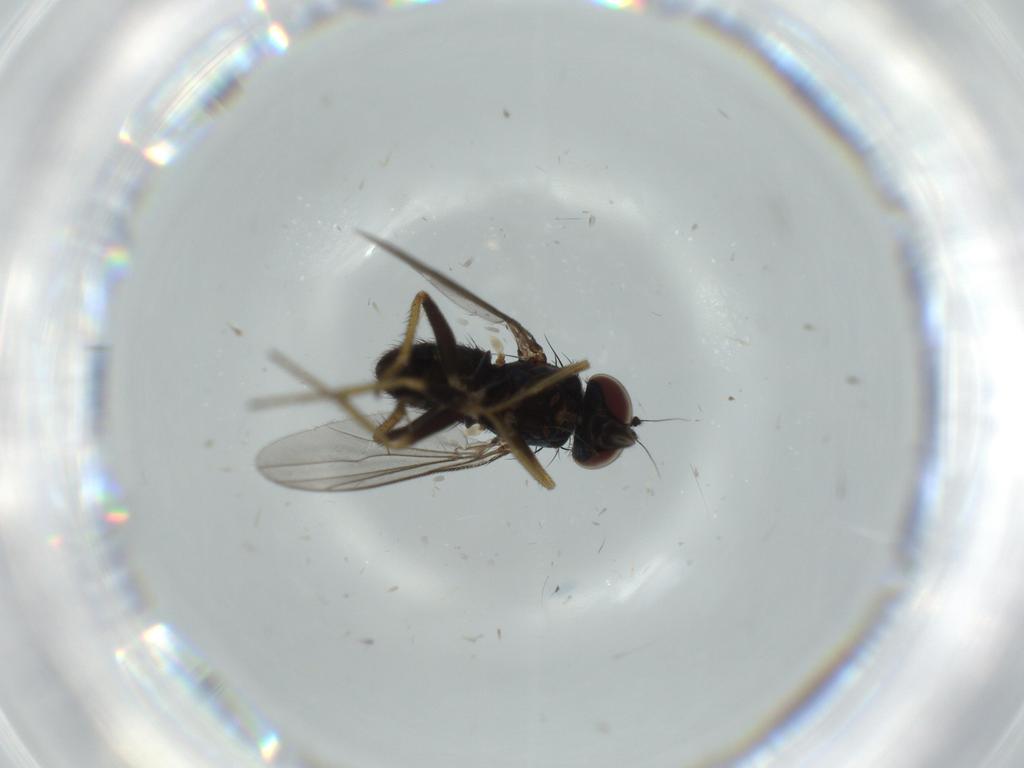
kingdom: Animalia
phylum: Arthropoda
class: Insecta
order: Diptera
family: Dolichopodidae
